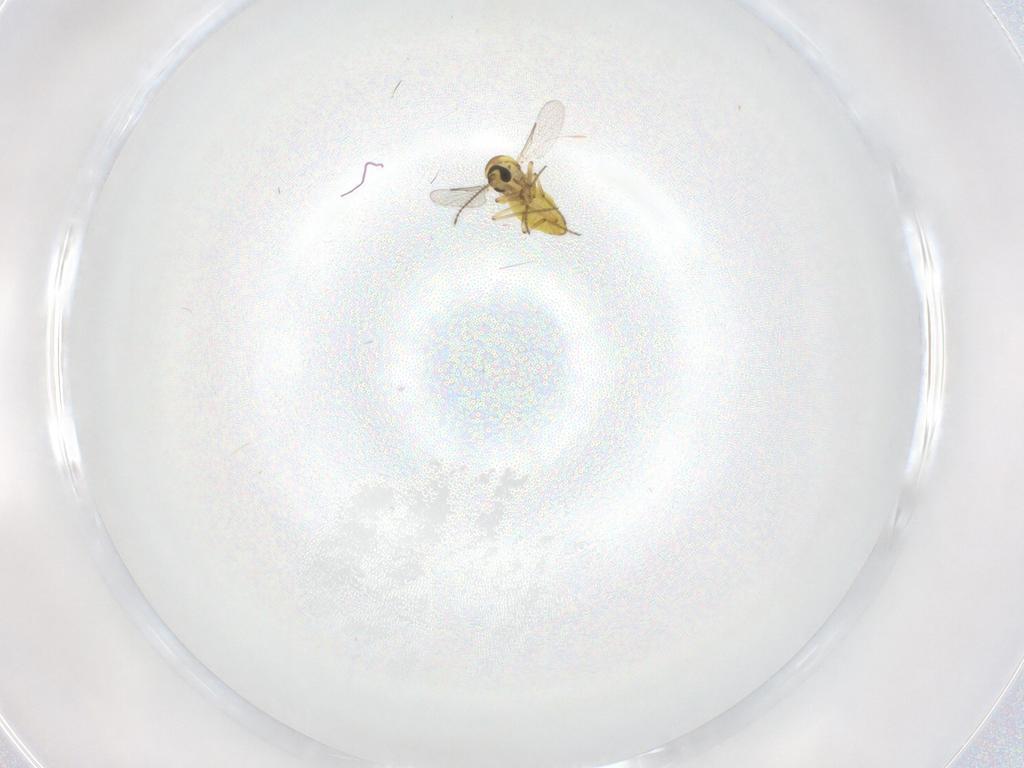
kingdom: Animalia
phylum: Arthropoda
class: Insecta
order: Diptera
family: Ceratopogonidae
